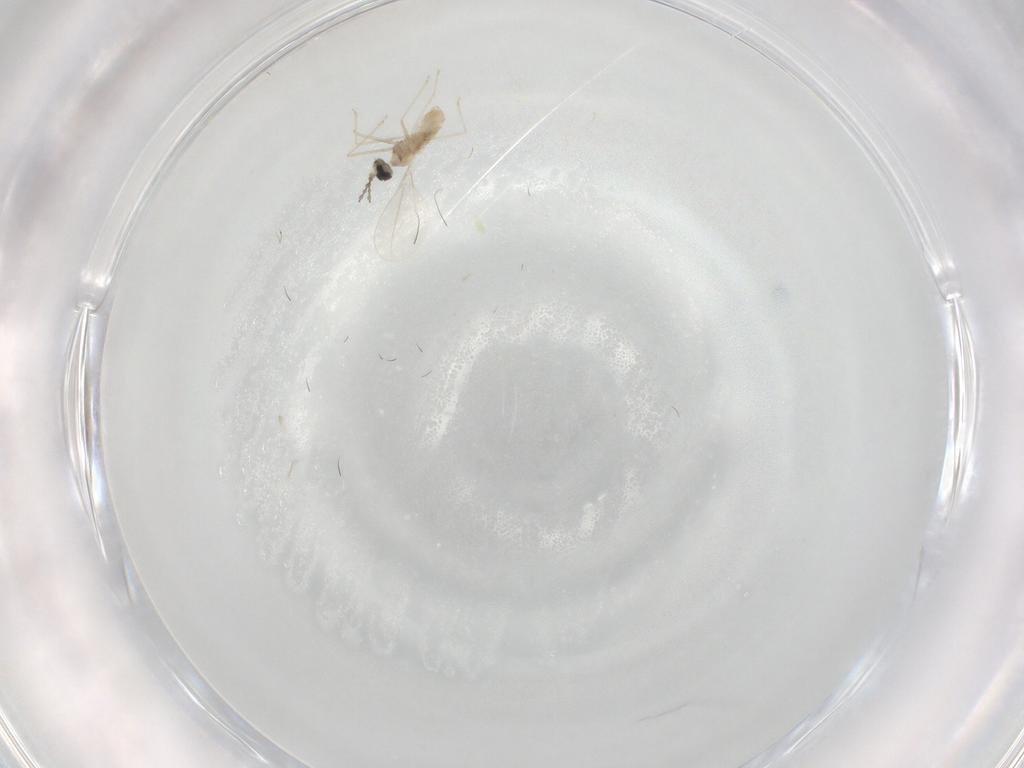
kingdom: Animalia
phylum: Arthropoda
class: Insecta
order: Diptera
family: Cecidomyiidae
